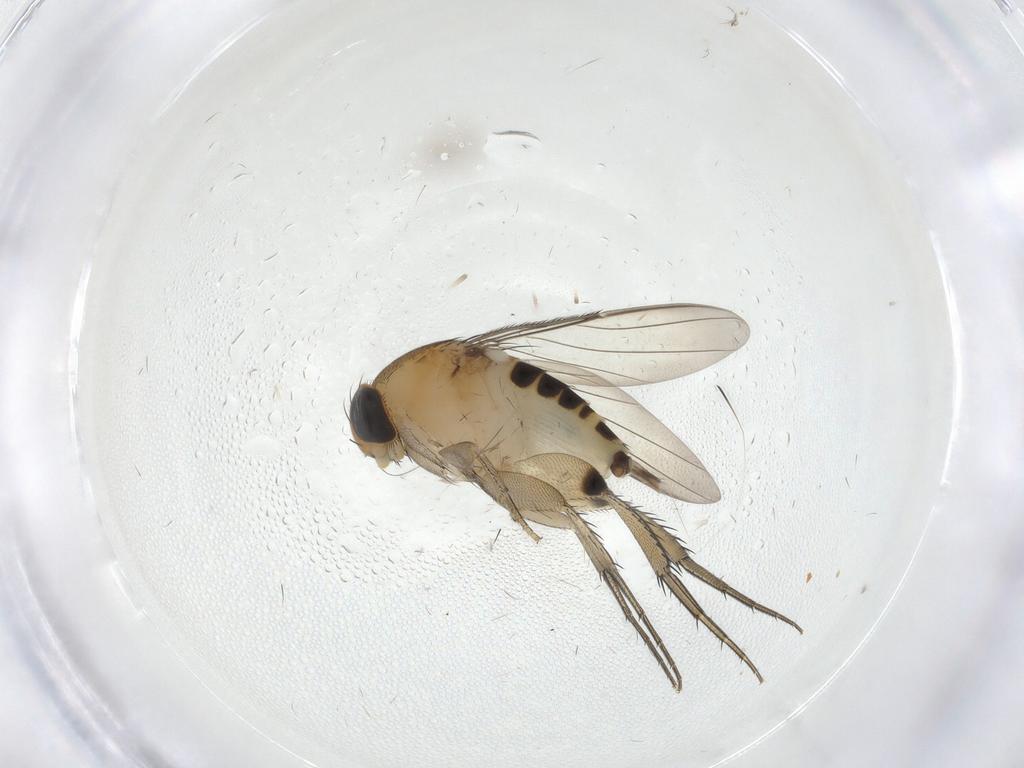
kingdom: Animalia
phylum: Arthropoda
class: Insecta
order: Diptera
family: Phoridae
